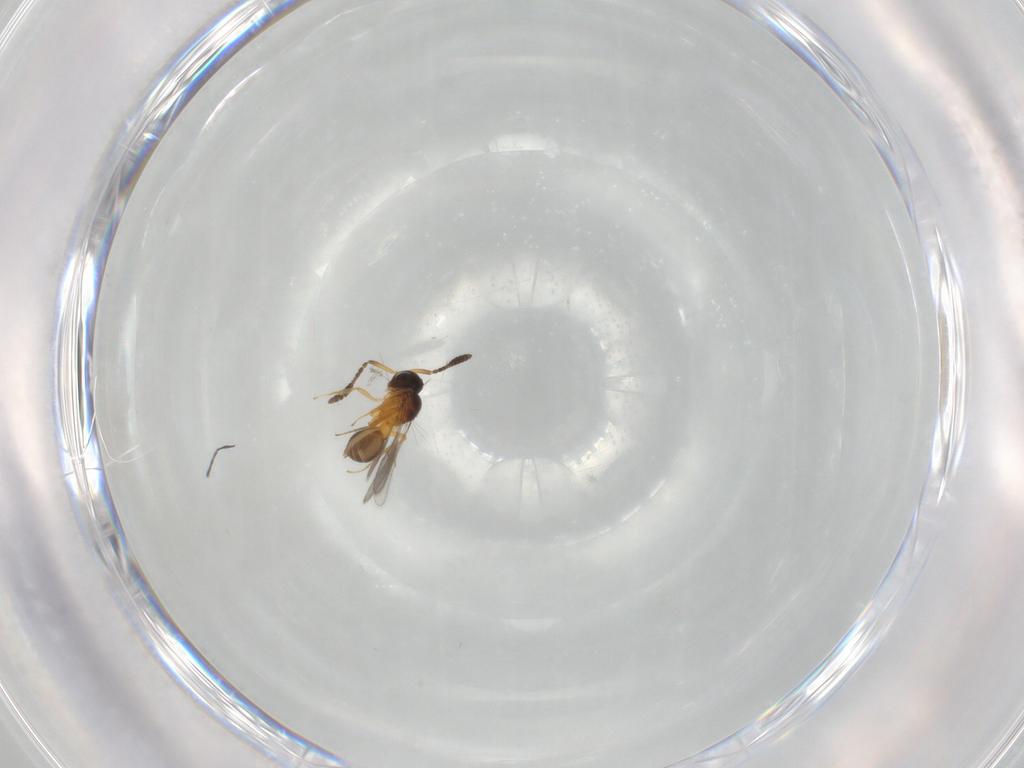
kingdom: Animalia
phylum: Arthropoda
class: Insecta
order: Hymenoptera
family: Scelionidae
